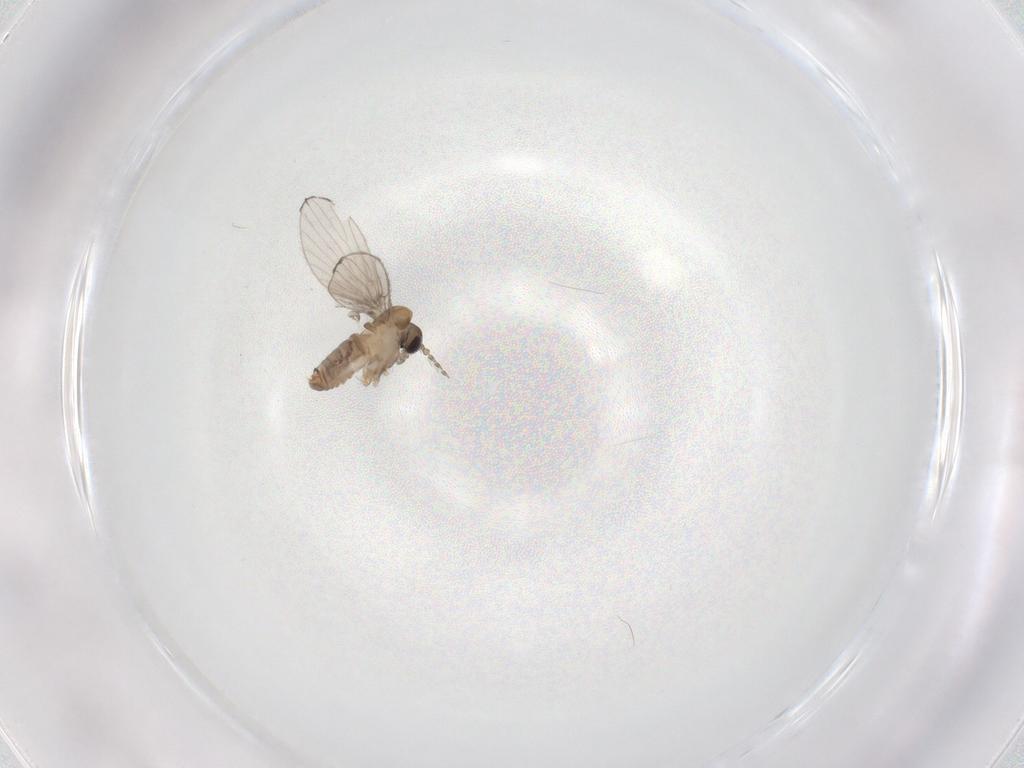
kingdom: Animalia
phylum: Arthropoda
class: Insecta
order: Diptera
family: Psychodidae
